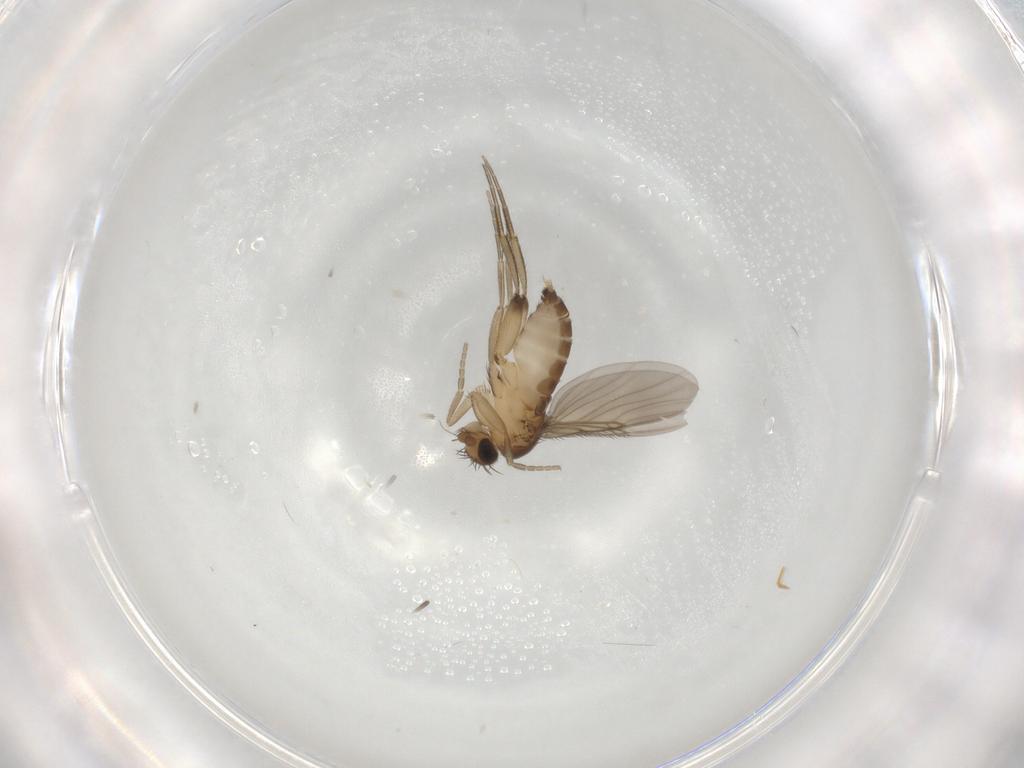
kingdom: Animalia
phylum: Arthropoda
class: Insecta
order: Diptera
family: Phoridae
